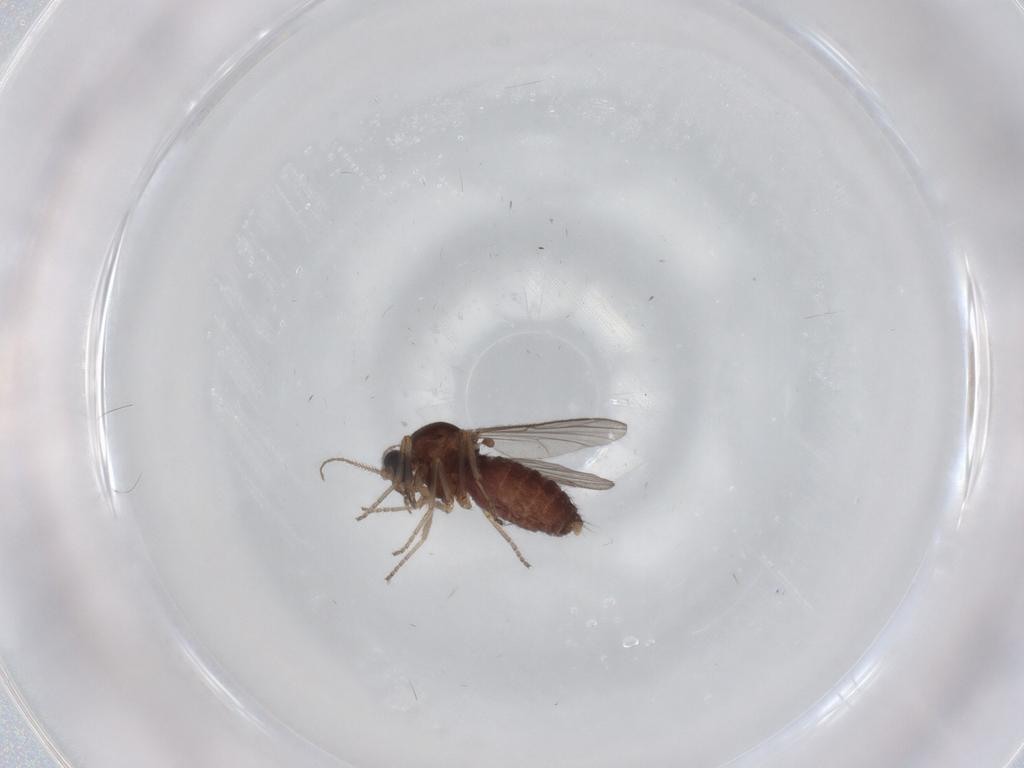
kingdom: Animalia
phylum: Arthropoda
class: Insecta
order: Diptera
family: Ceratopogonidae
